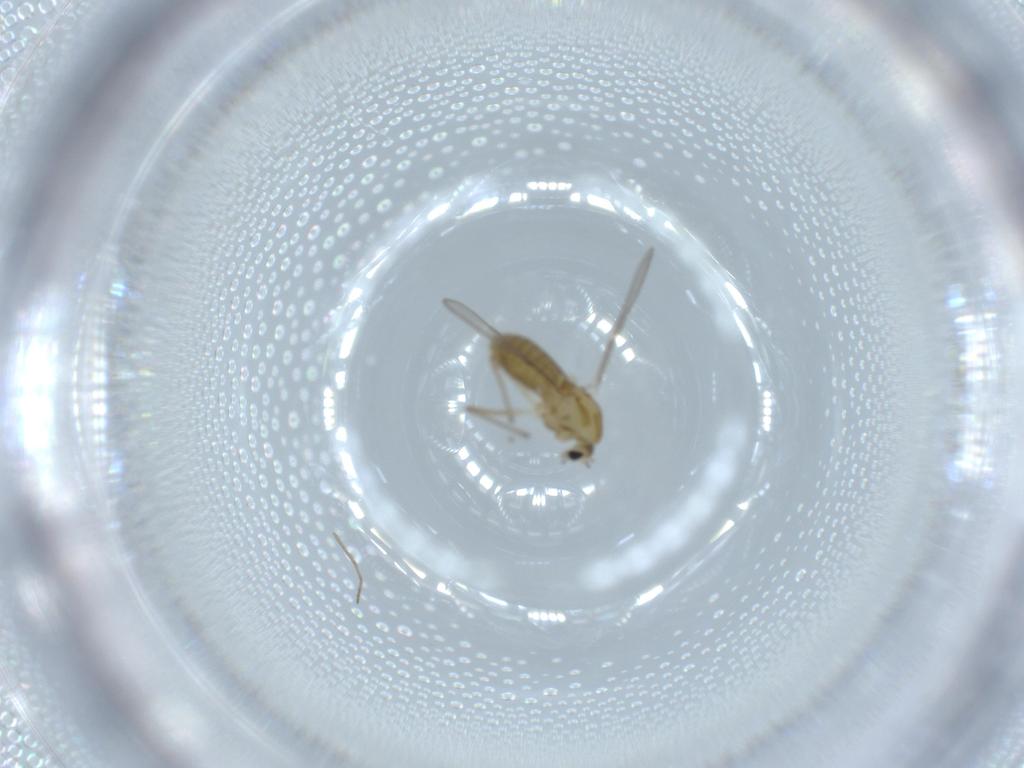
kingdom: Animalia
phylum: Arthropoda
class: Insecta
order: Diptera
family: Chironomidae
